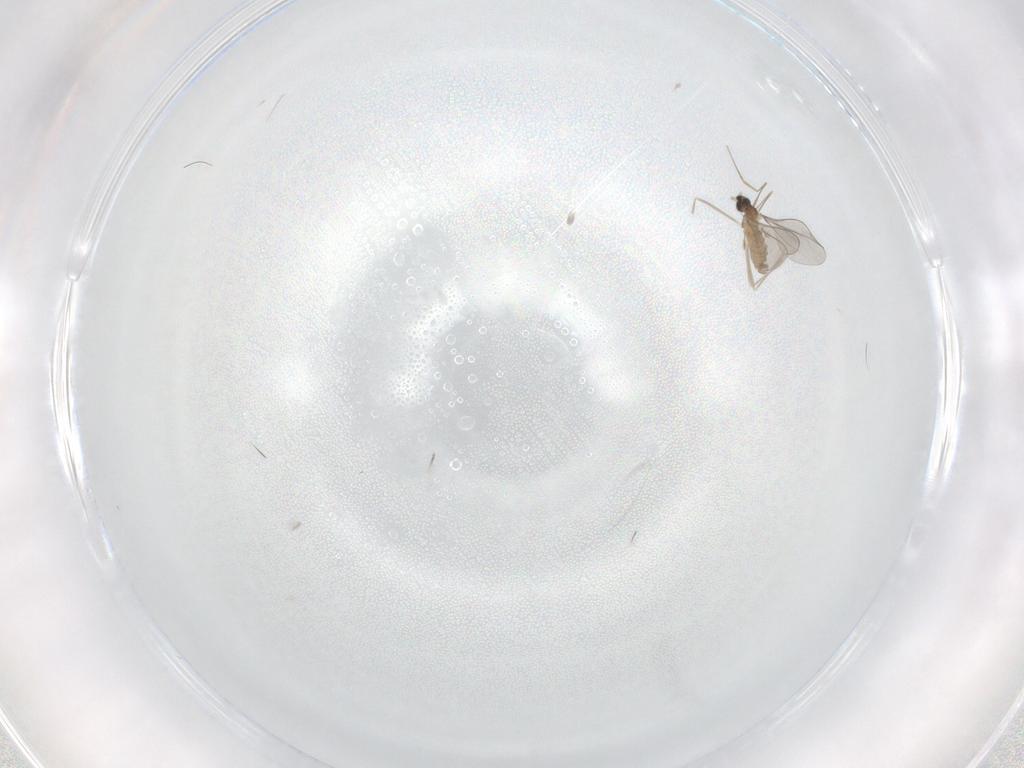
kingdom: Animalia
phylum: Arthropoda
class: Insecta
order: Diptera
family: Cecidomyiidae
